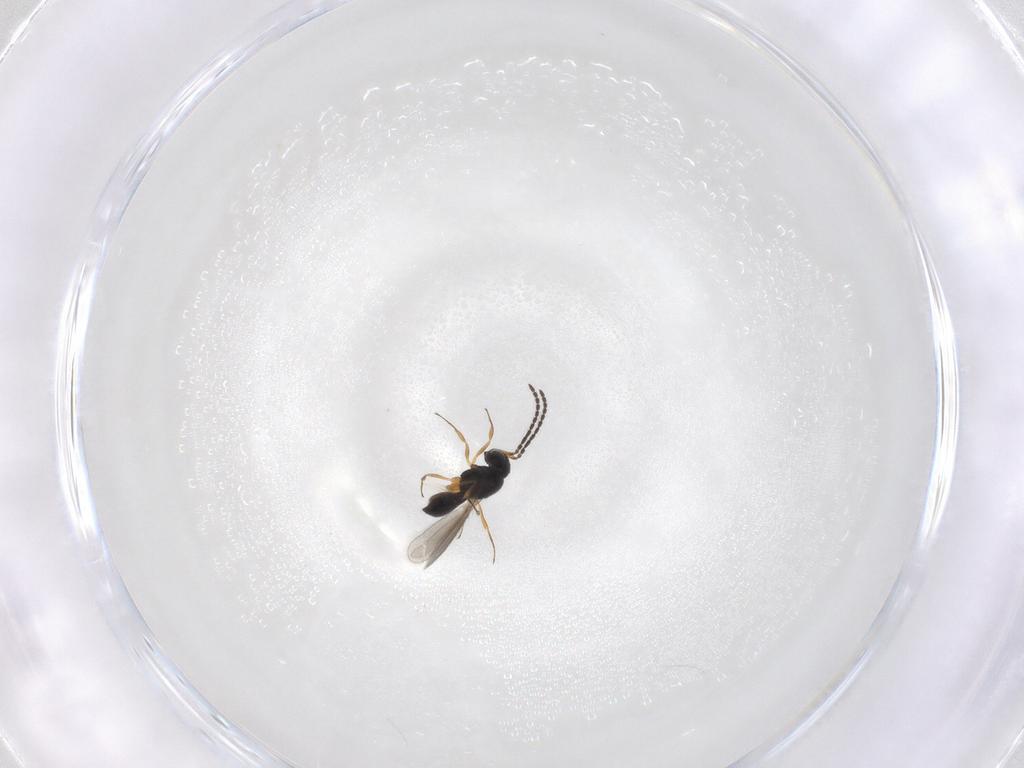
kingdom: Animalia
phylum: Arthropoda
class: Insecta
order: Hymenoptera
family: Scelionidae
